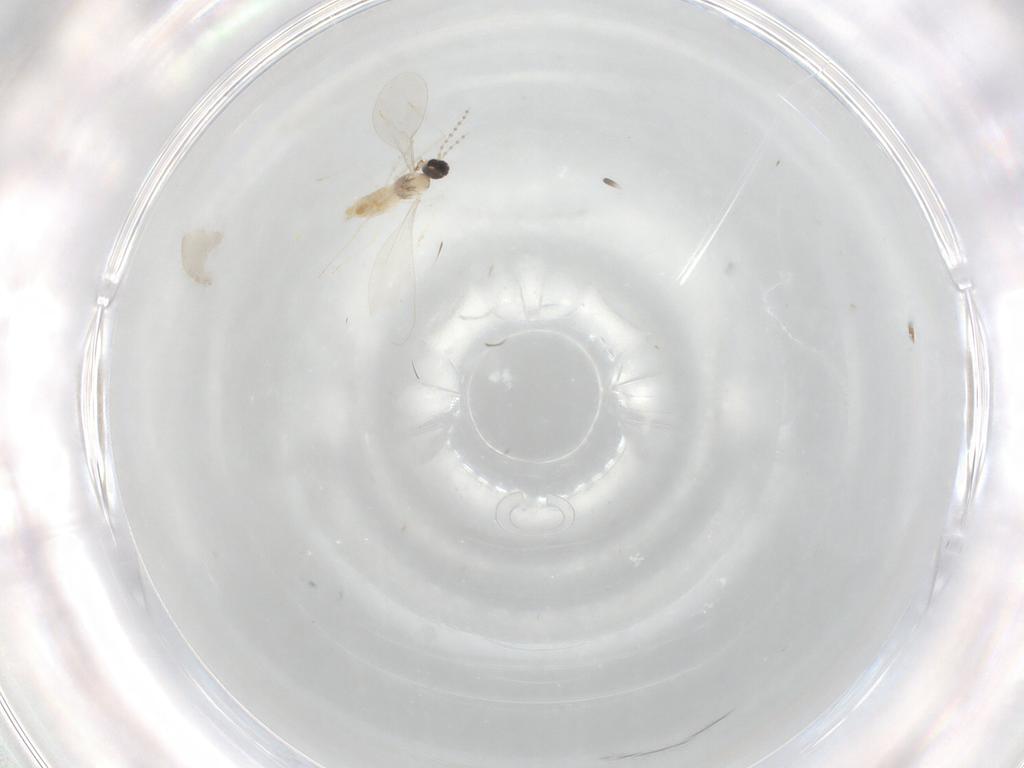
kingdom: Animalia
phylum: Arthropoda
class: Insecta
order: Diptera
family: Cecidomyiidae
